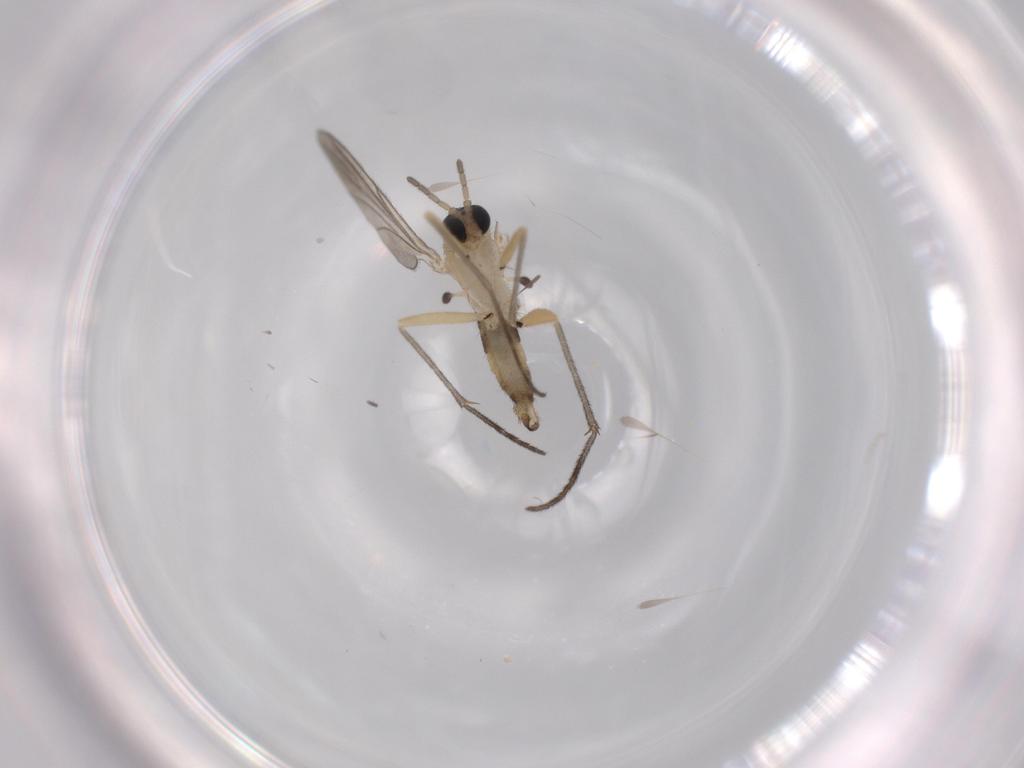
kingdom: Animalia
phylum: Arthropoda
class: Insecta
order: Diptera
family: Sciaridae
